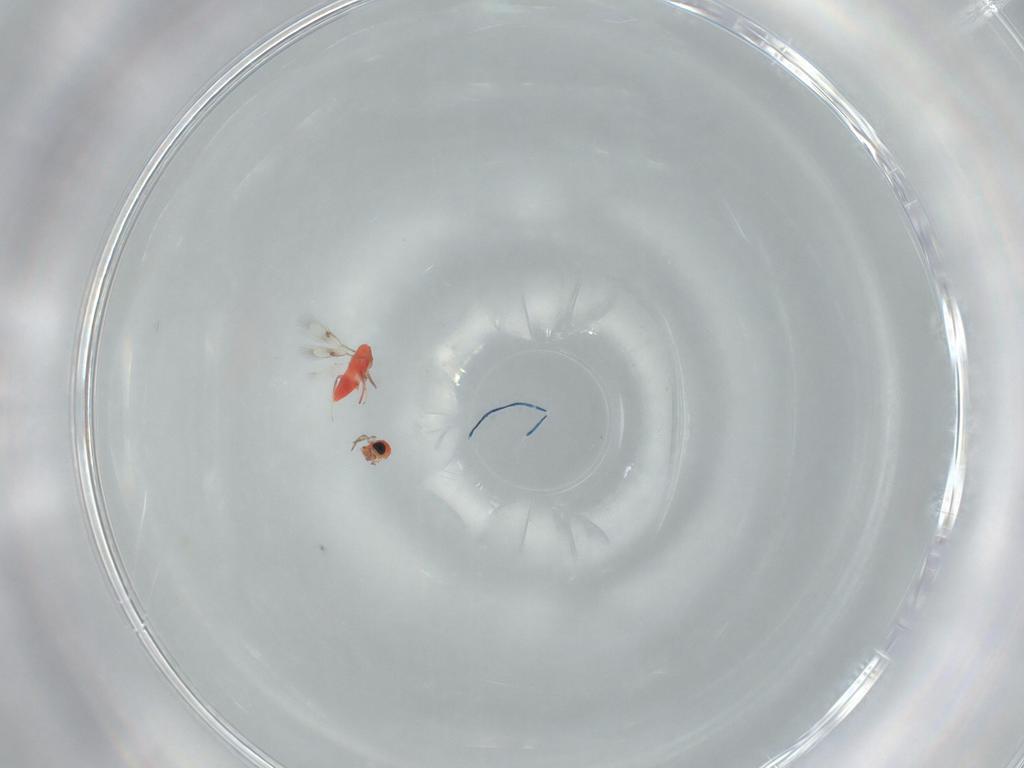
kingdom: Animalia
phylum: Arthropoda
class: Insecta
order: Hymenoptera
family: Trichogrammatidae
